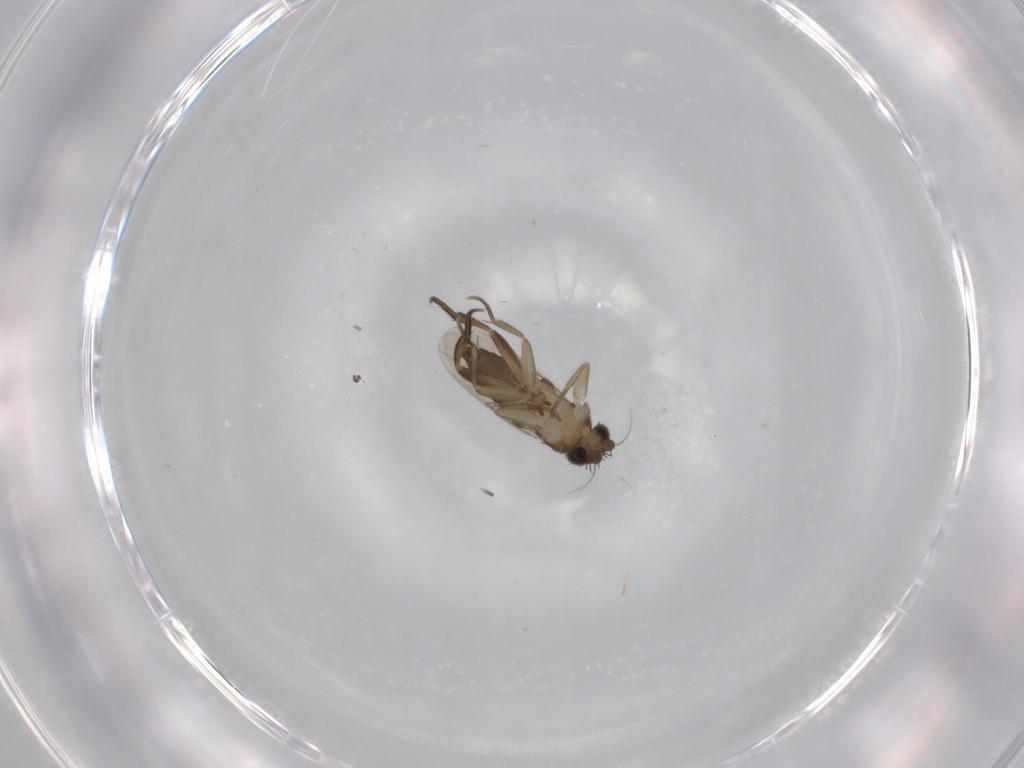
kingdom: Animalia
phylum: Arthropoda
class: Insecta
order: Diptera
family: Phoridae
